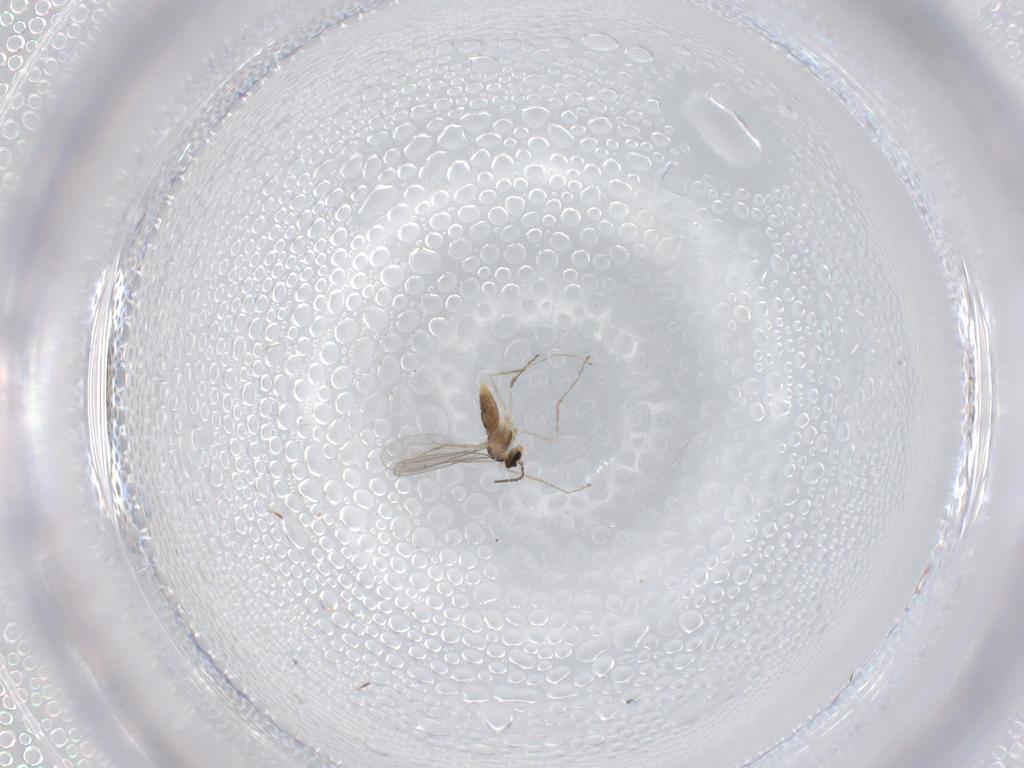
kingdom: Animalia
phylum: Arthropoda
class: Insecta
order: Diptera
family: Cecidomyiidae
